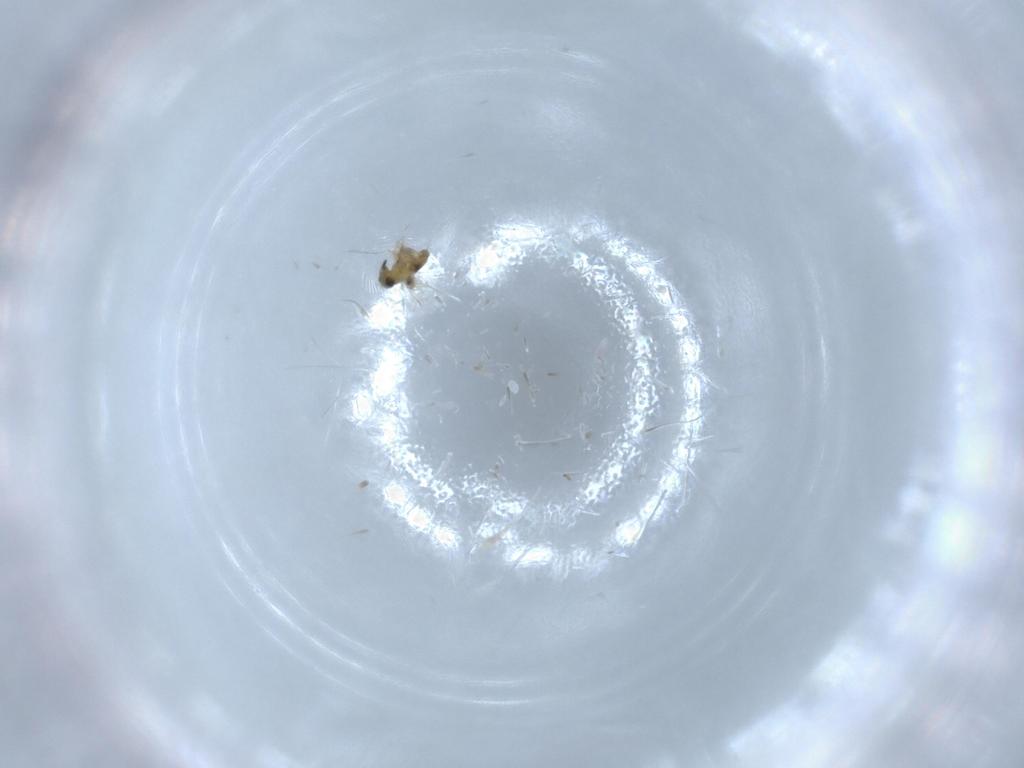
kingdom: Animalia
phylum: Arthropoda
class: Insecta
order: Hymenoptera
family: Signiphoridae
